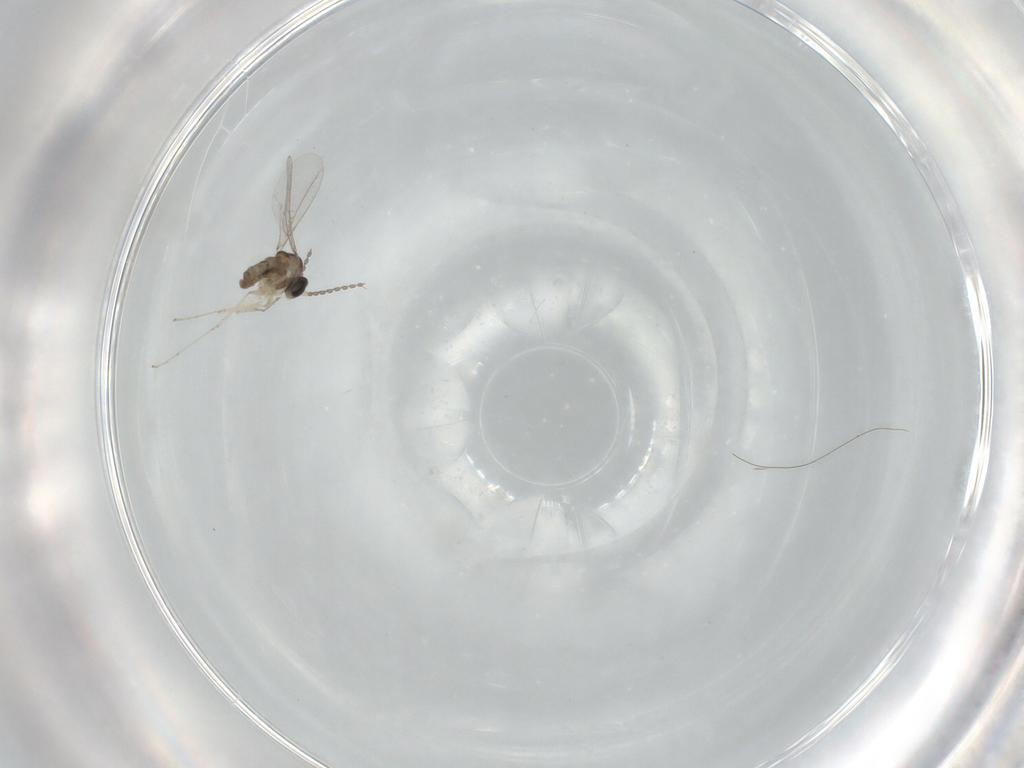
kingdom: Animalia
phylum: Arthropoda
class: Insecta
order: Diptera
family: Cecidomyiidae
